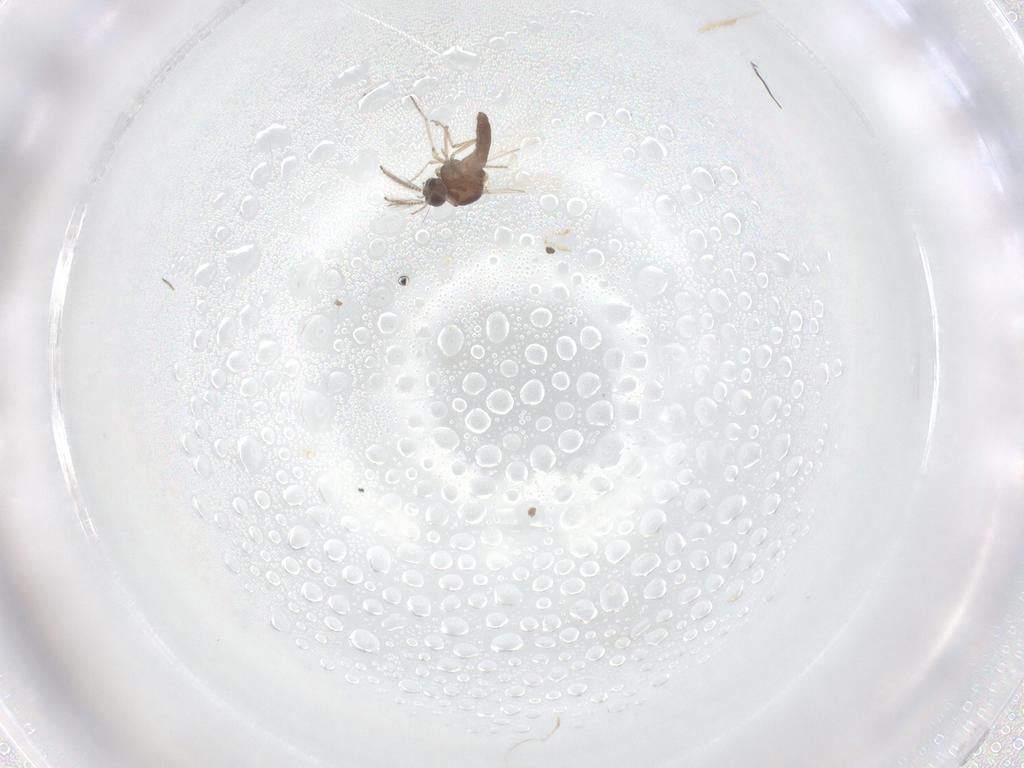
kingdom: Animalia
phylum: Arthropoda
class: Insecta
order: Diptera
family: Ceratopogonidae
